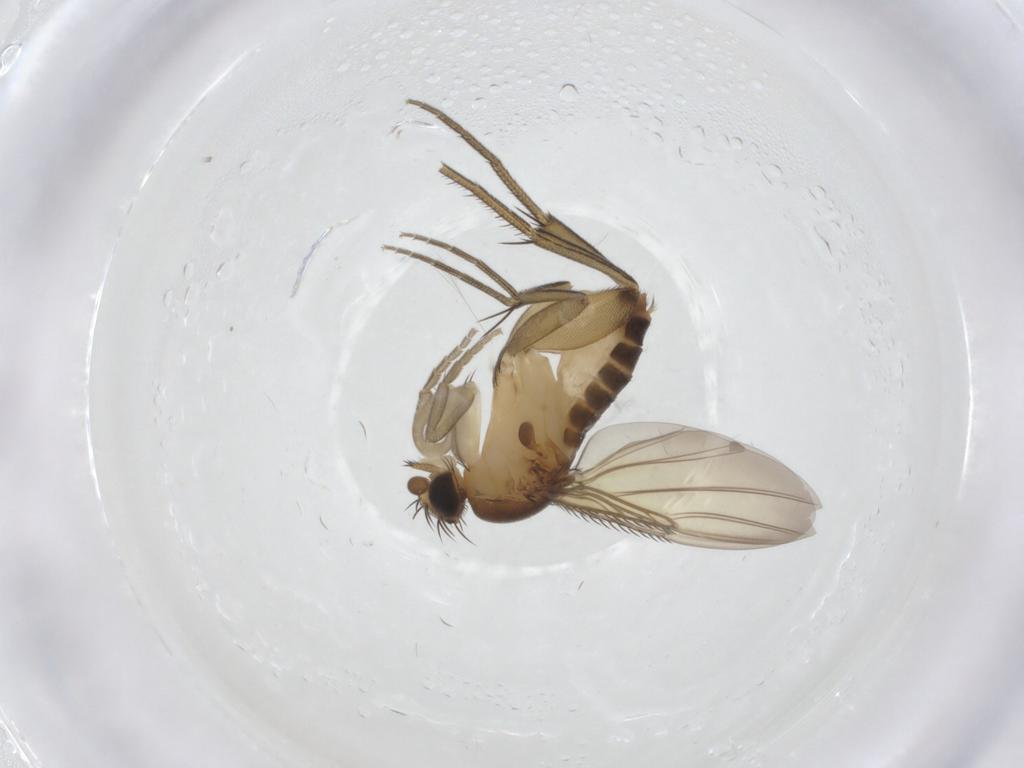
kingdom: Animalia
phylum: Arthropoda
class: Insecta
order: Diptera
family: Phoridae
